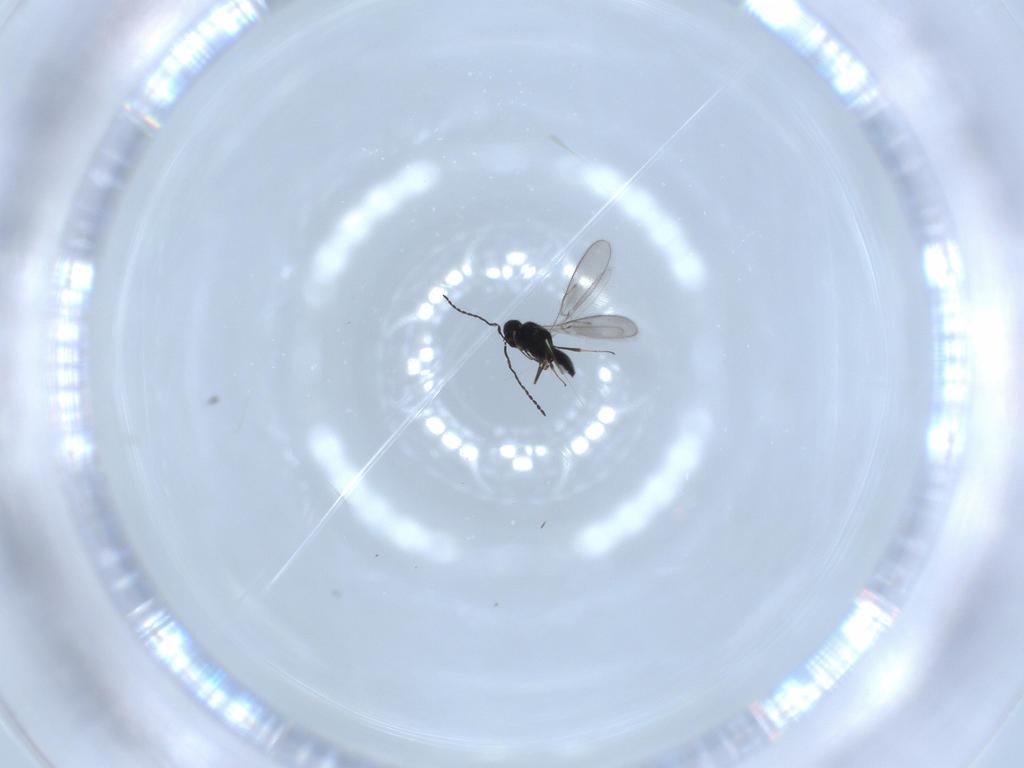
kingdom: Animalia
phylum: Arthropoda
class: Insecta
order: Hymenoptera
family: Scelionidae
